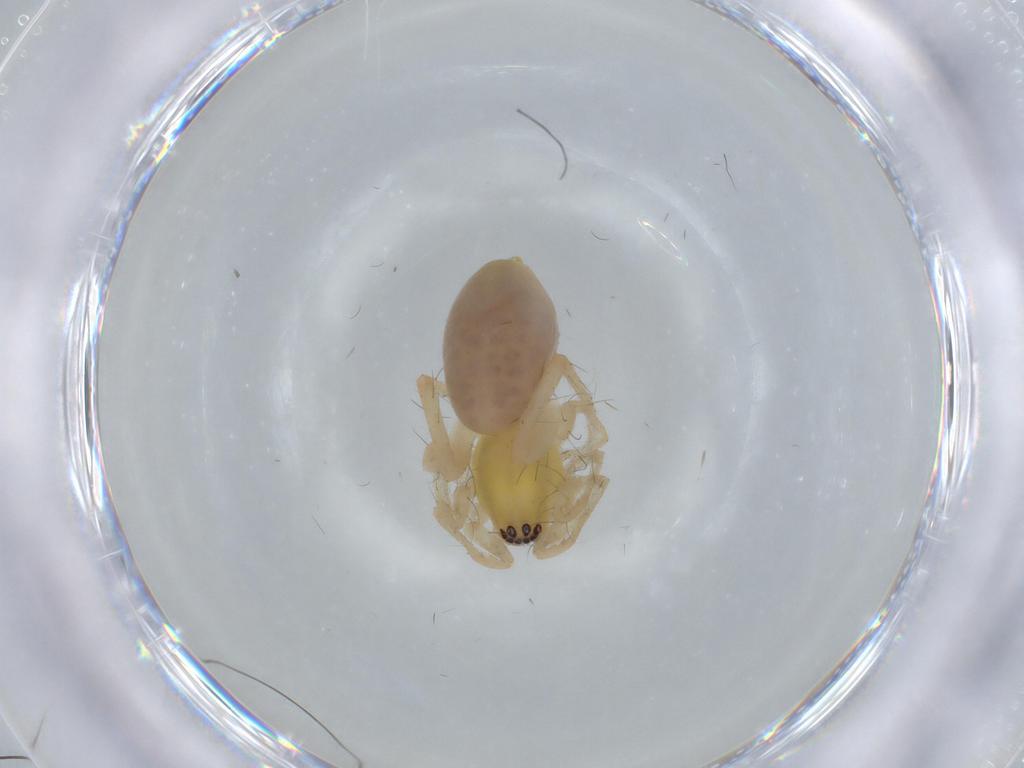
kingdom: Animalia
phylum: Arthropoda
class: Arachnida
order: Araneae
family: Anyphaenidae
